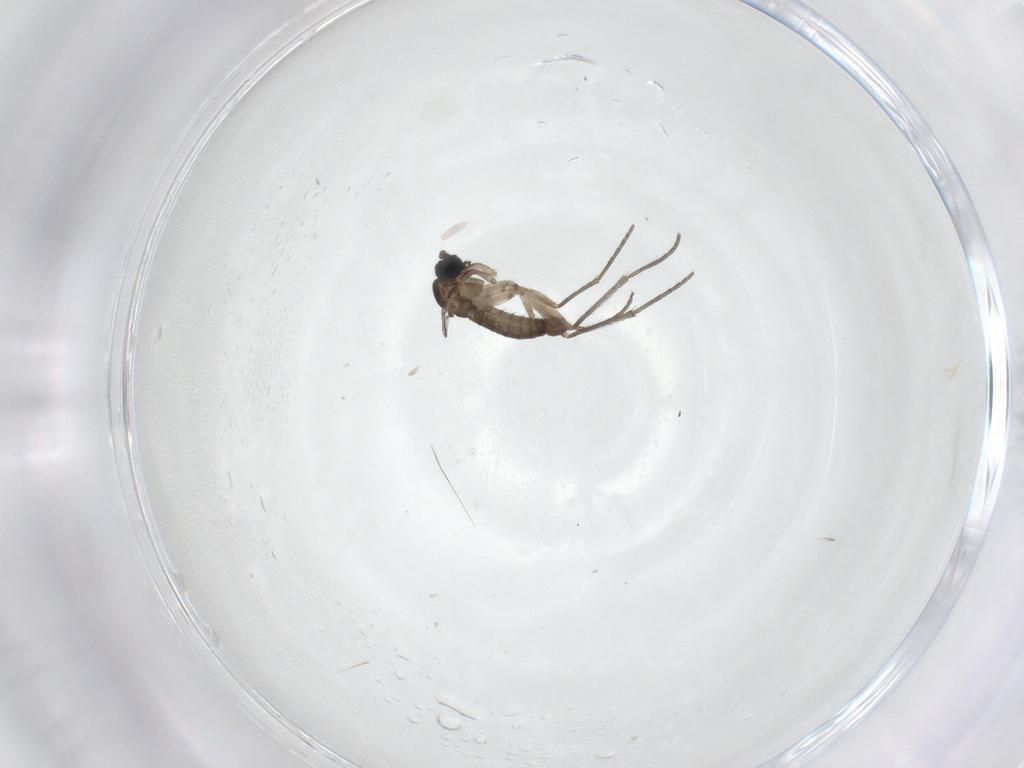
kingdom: Animalia
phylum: Arthropoda
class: Insecta
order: Diptera
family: Sciaridae
